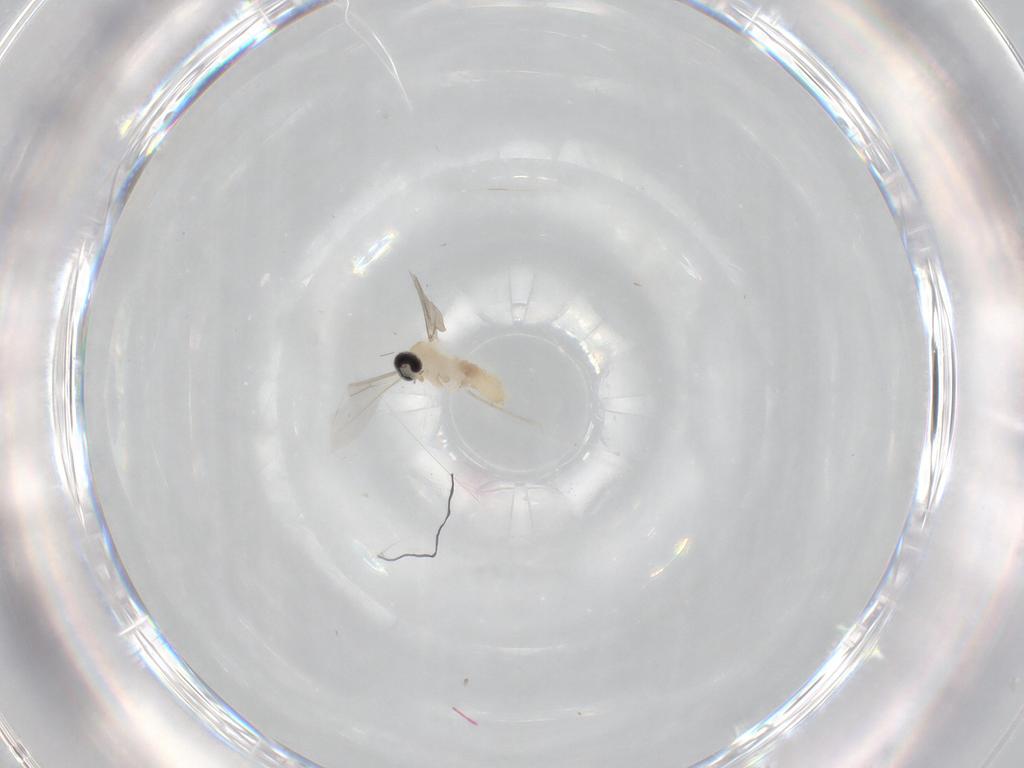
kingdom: Animalia
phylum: Arthropoda
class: Insecta
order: Diptera
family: Cecidomyiidae
